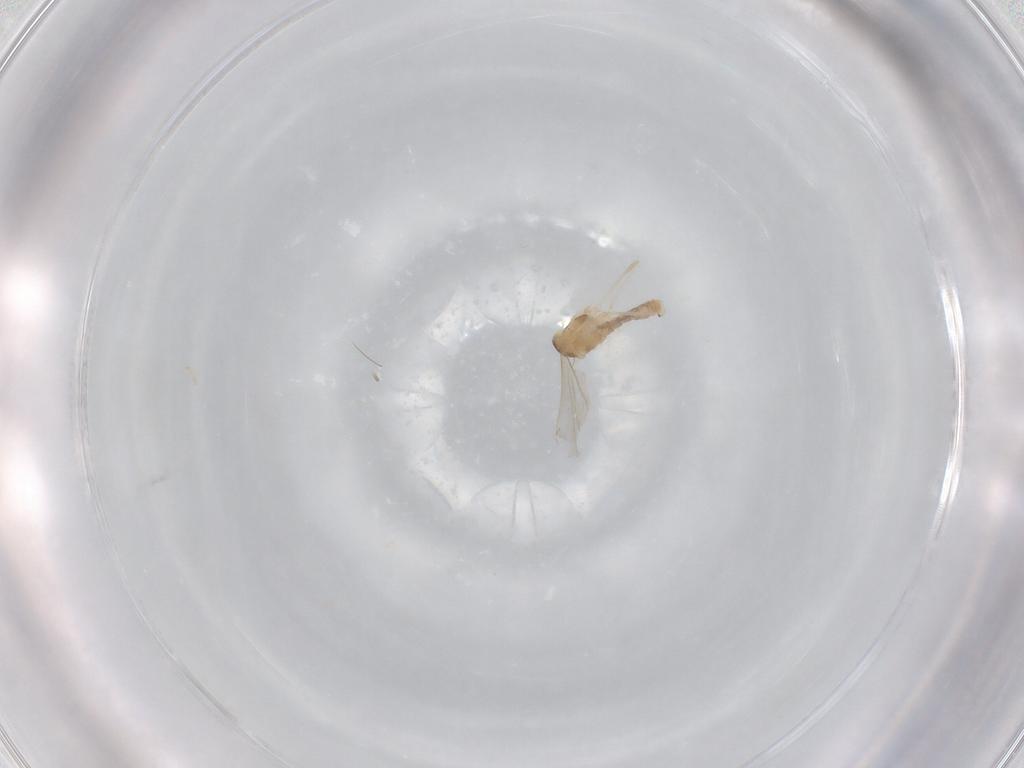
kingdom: Animalia
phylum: Arthropoda
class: Insecta
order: Diptera
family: Cecidomyiidae
